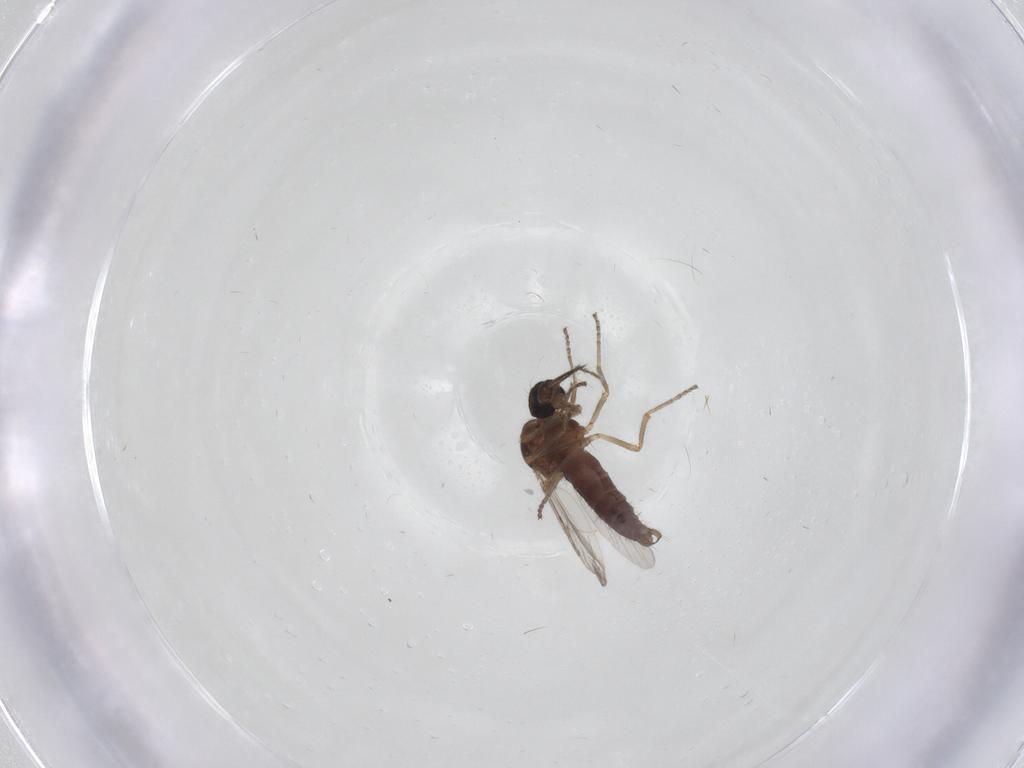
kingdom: Animalia
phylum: Arthropoda
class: Insecta
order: Diptera
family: Ceratopogonidae
